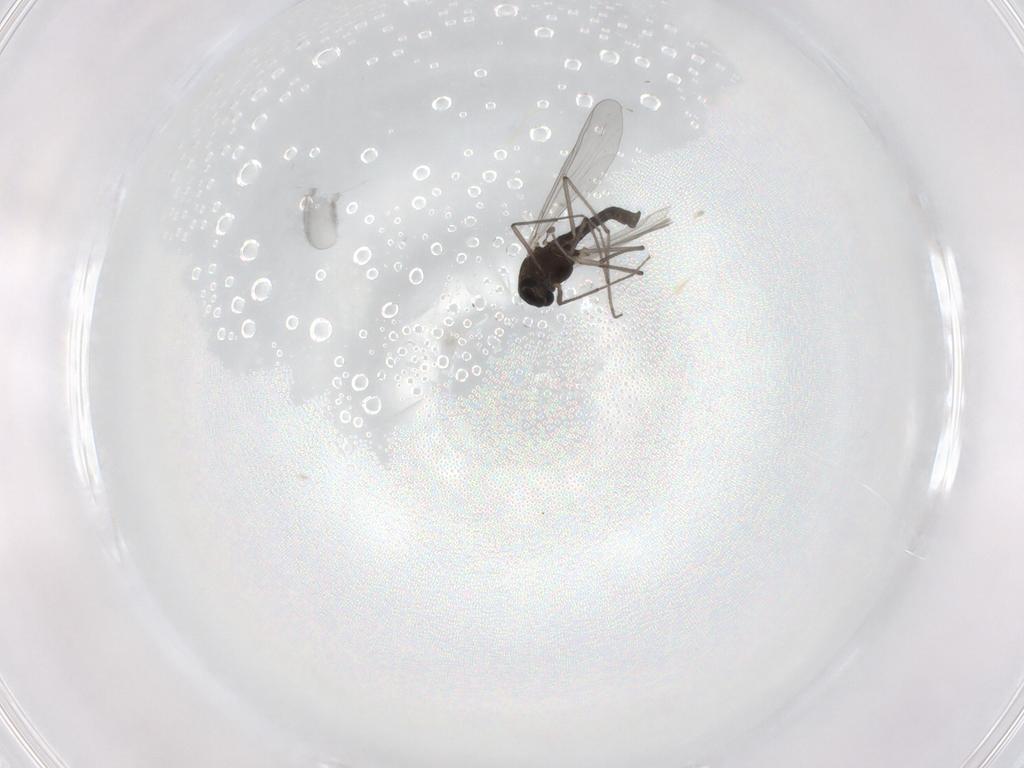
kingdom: Animalia
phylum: Arthropoda
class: Insecta
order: Diptera
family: Chironomidae
